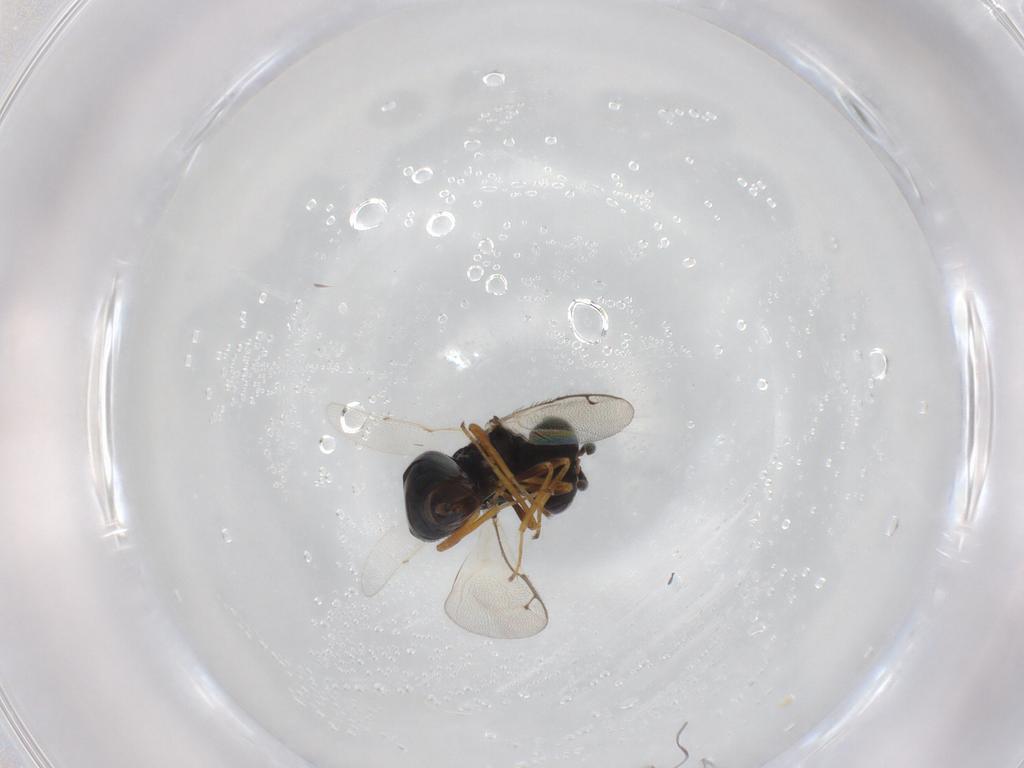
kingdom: Animalia
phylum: Arthropoda
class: Insecta
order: Hymenoptera
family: Pteromalidae
